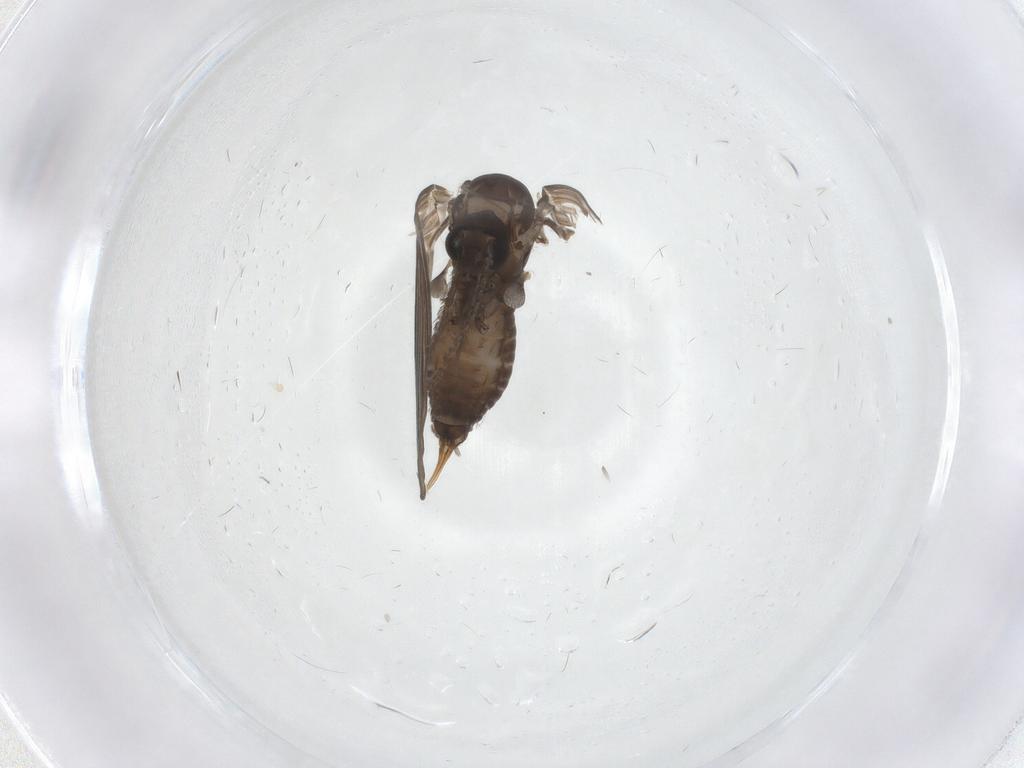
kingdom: Animalia
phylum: Arthropoda
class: Insecta
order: Diptera
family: Psychodidae
